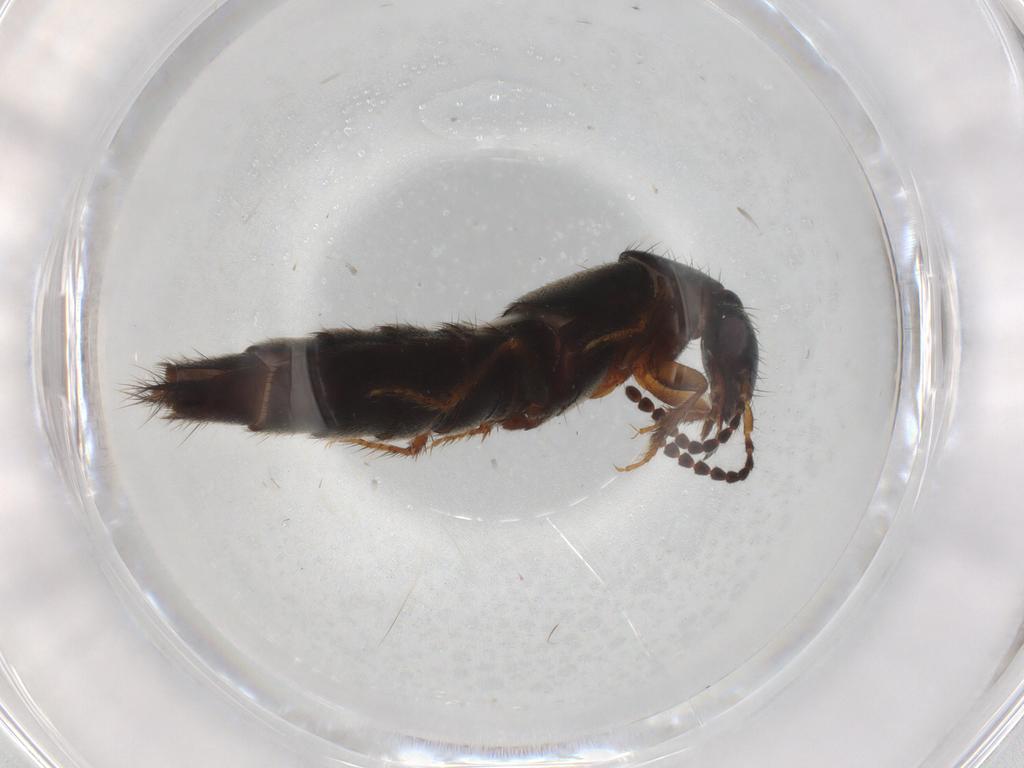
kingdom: Animalia
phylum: Arthropoda
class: Insecta
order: Coleoptera
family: Staphylinidae
